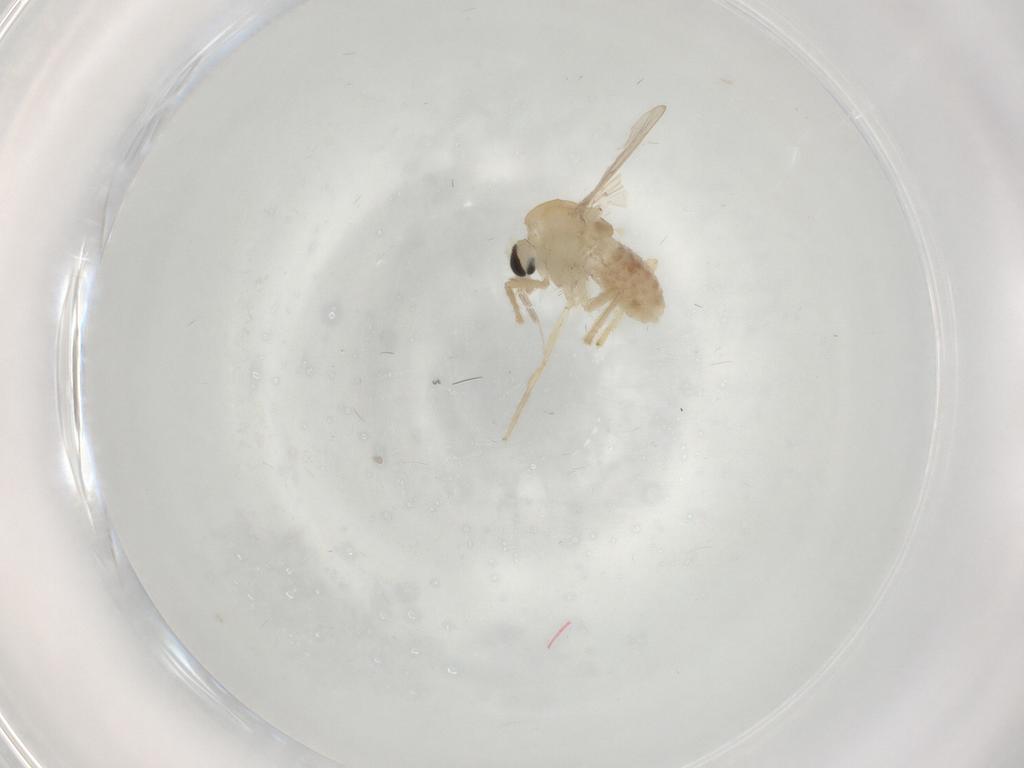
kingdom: Animalia
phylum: Arthropoda
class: Insecta
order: Diptera
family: Chironomidae
